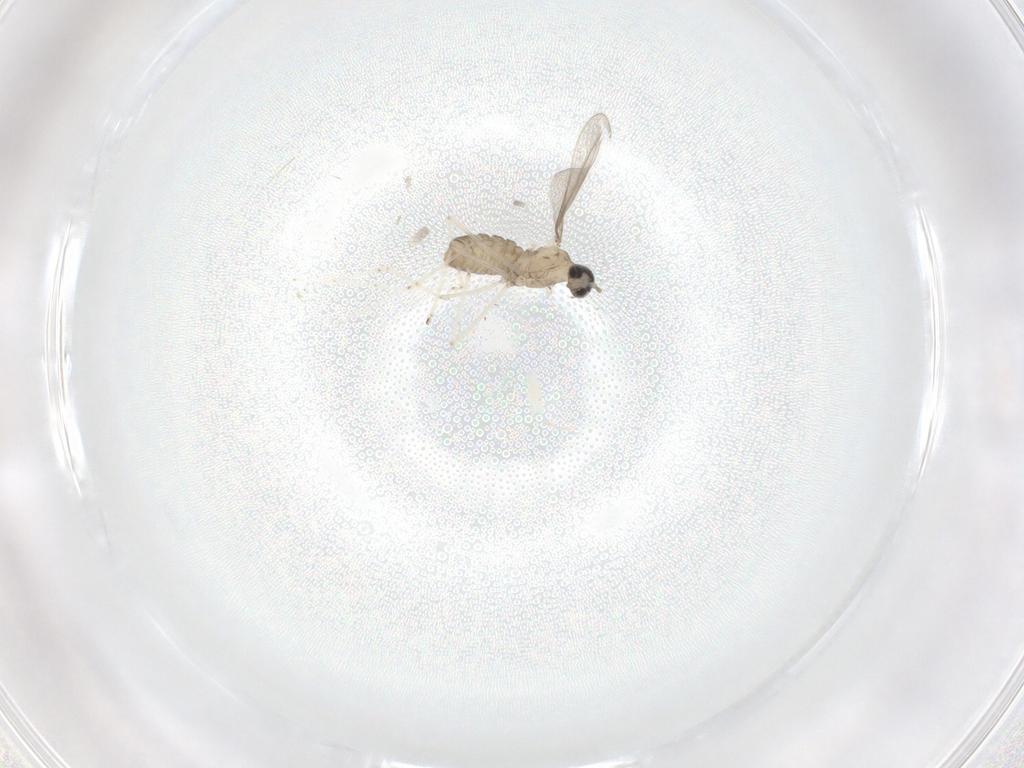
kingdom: Animalia
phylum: Arthropoda
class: Insecta
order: Diptera
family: Cecidomyiidae
